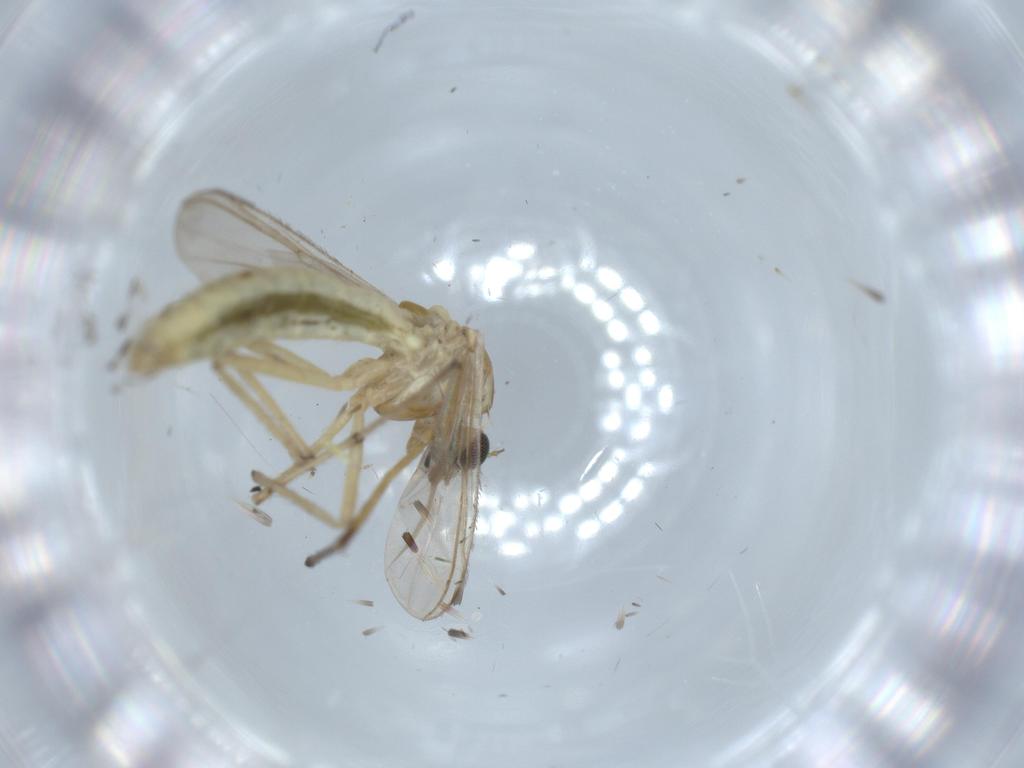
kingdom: Animalia
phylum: Arthropoda
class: Insecta
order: Diptera
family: Chironomidae
